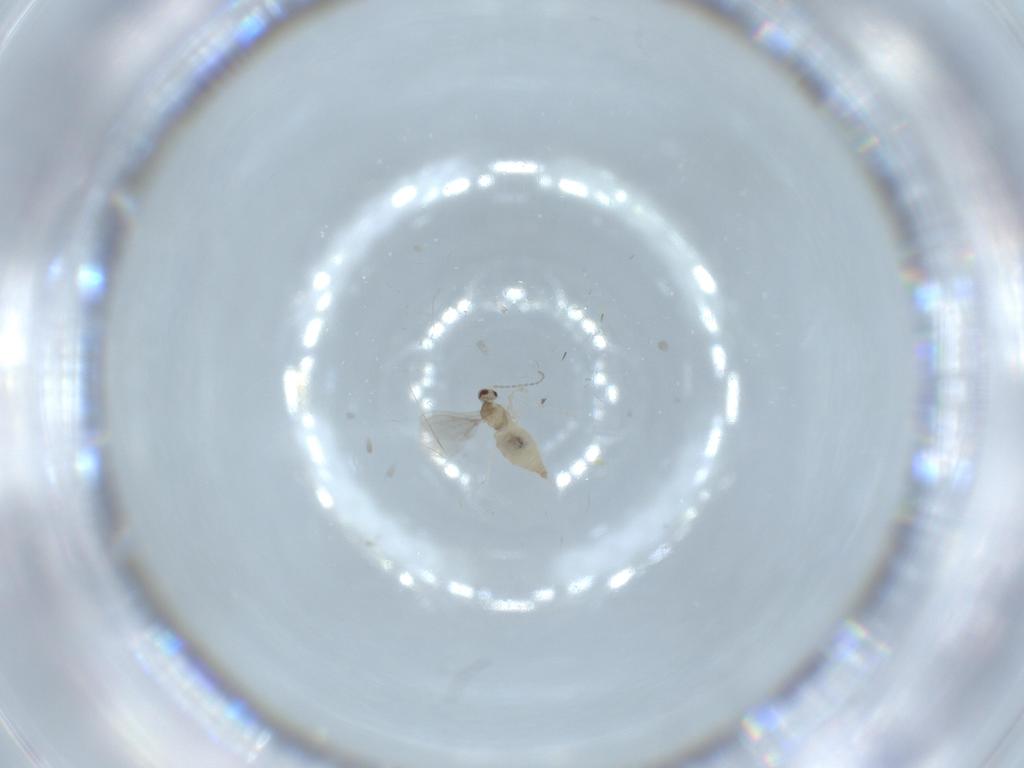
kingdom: Animalia
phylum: Arthropoda
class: Insecta
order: Diptera
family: Cecidomyiidae
